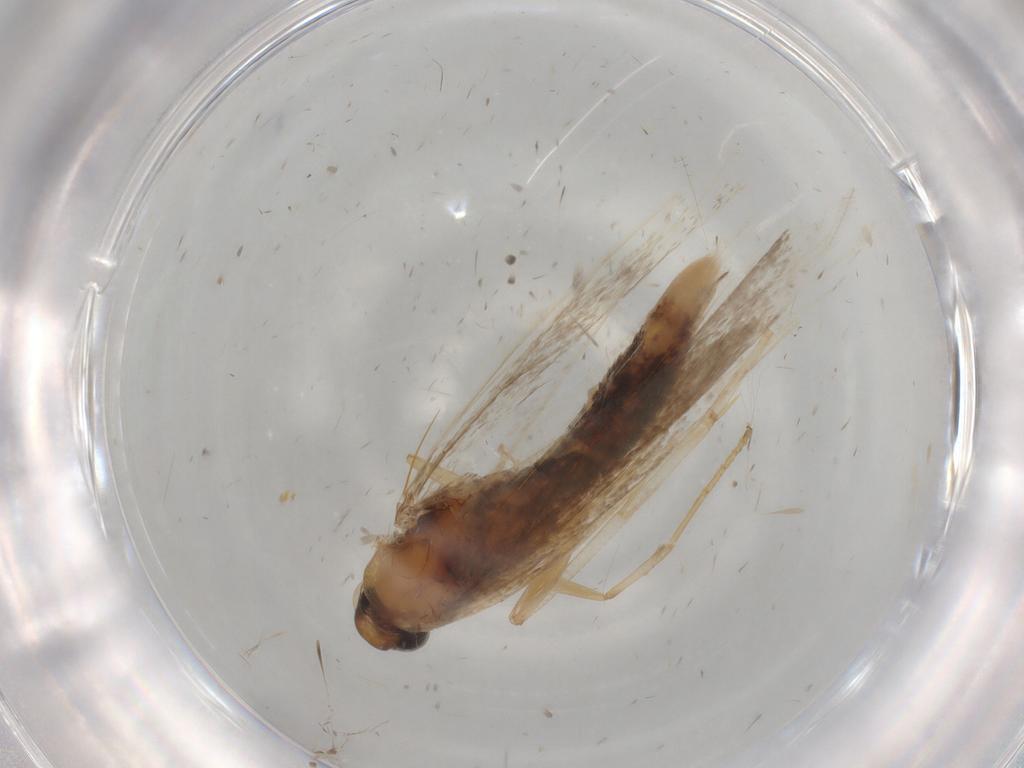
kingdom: Animalia
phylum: Arthropoda
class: Insecta
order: Lepidoptera
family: Gelechiidae
